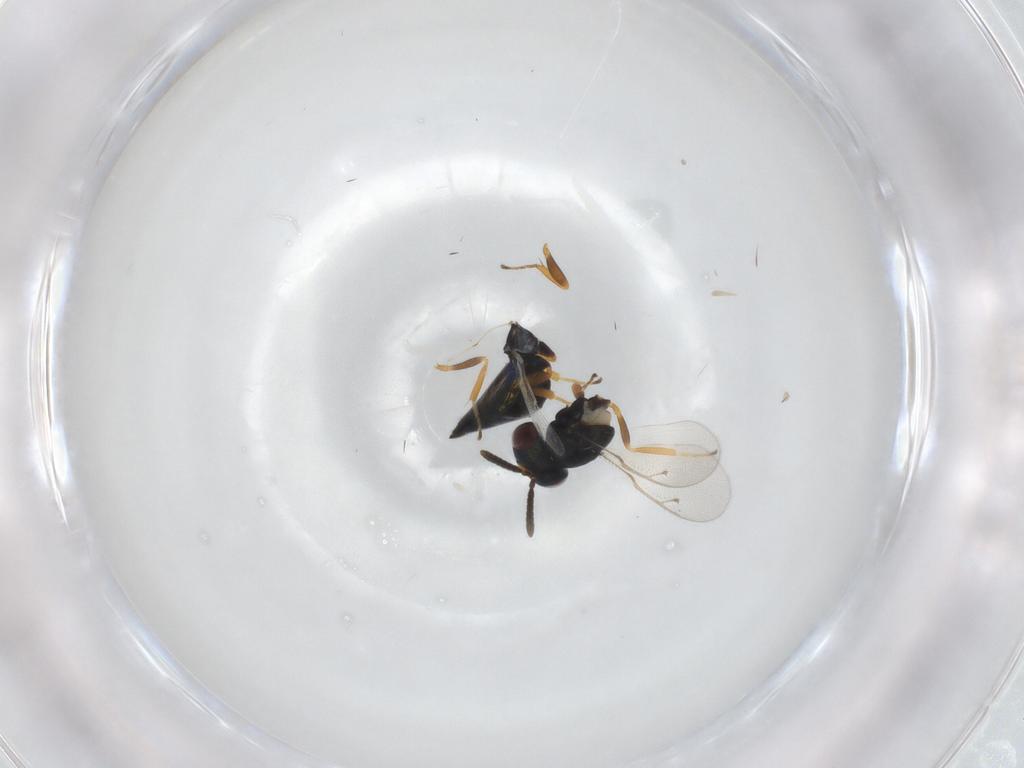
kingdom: Animalia
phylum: Arthropoda
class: Insecta
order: Hymenoptera
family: Pteromalidae
